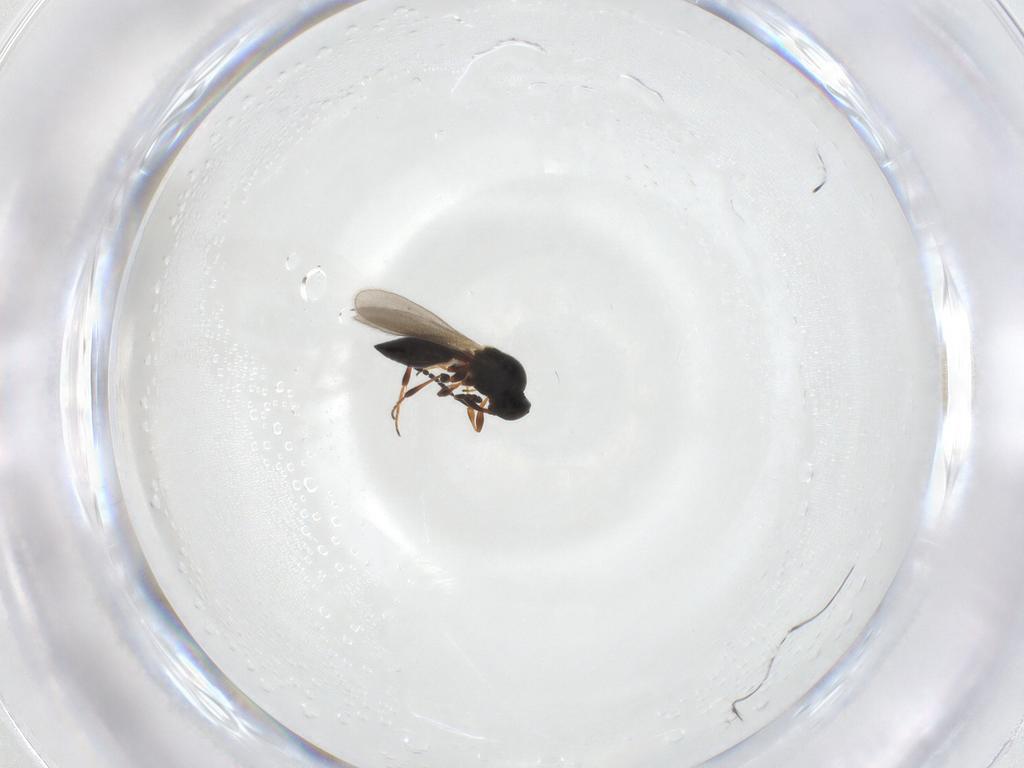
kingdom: Animalia
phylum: Arthropoda
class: Insecta
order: Hymenoptera
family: Platygastridae
